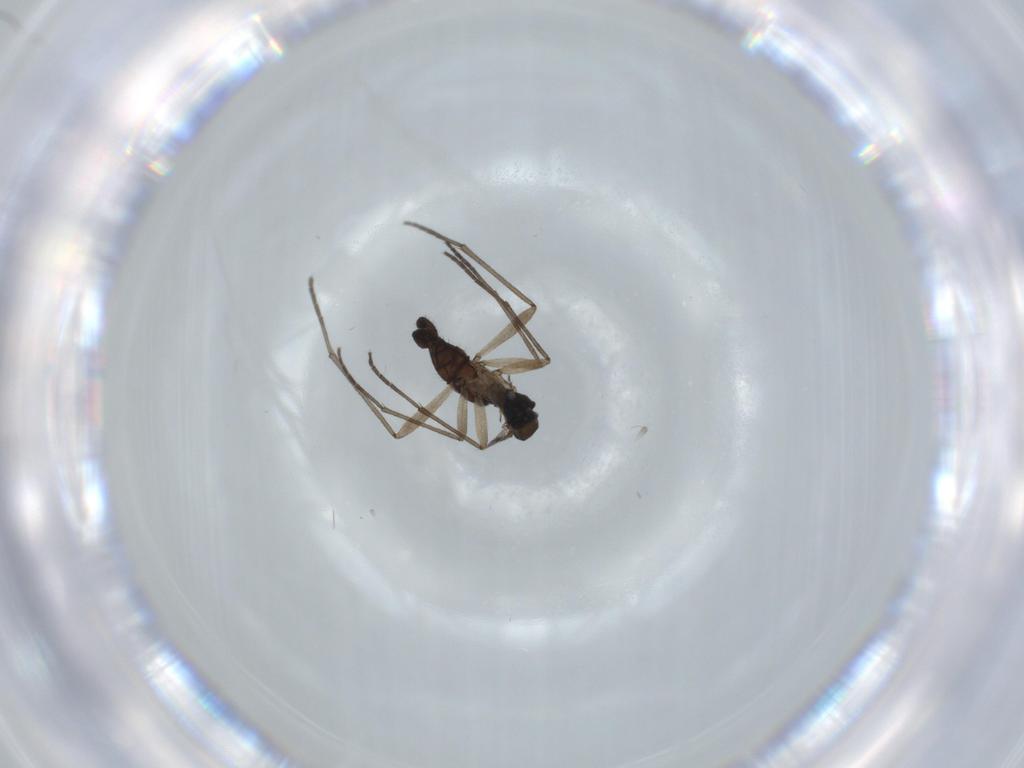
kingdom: Animalia
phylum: Arthropoda
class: Insecta
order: Diptera
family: Sciaridae
